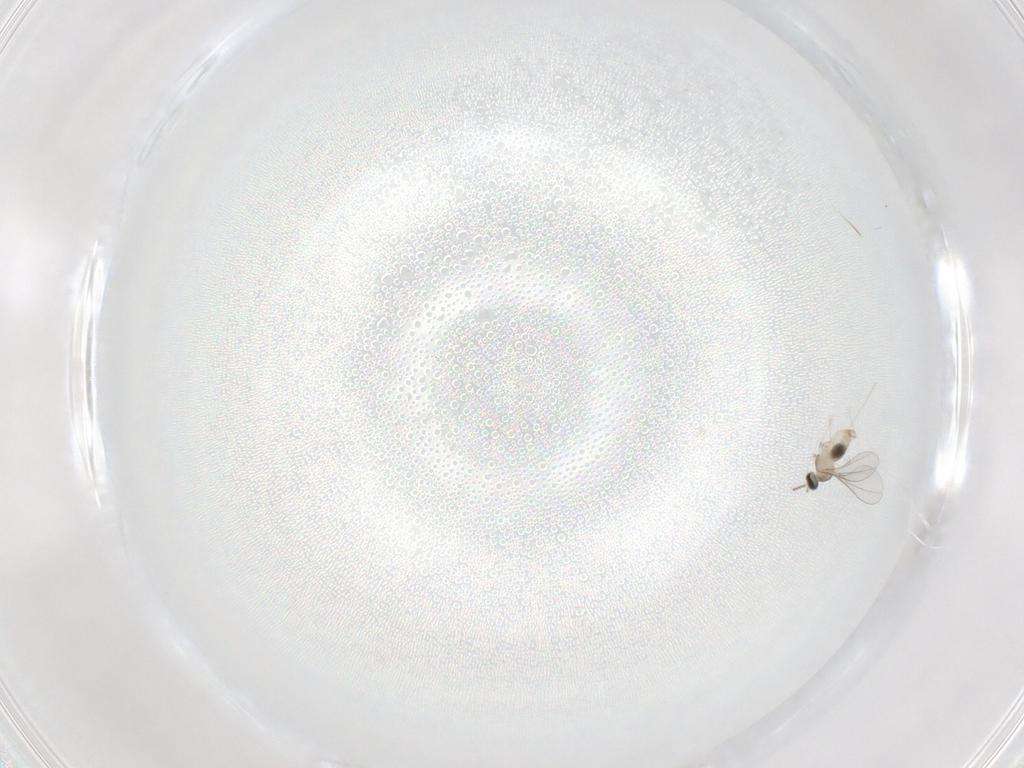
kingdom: Animalia
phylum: Arthropoda
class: Insecta
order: Diptera
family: Cecidomyiidae
